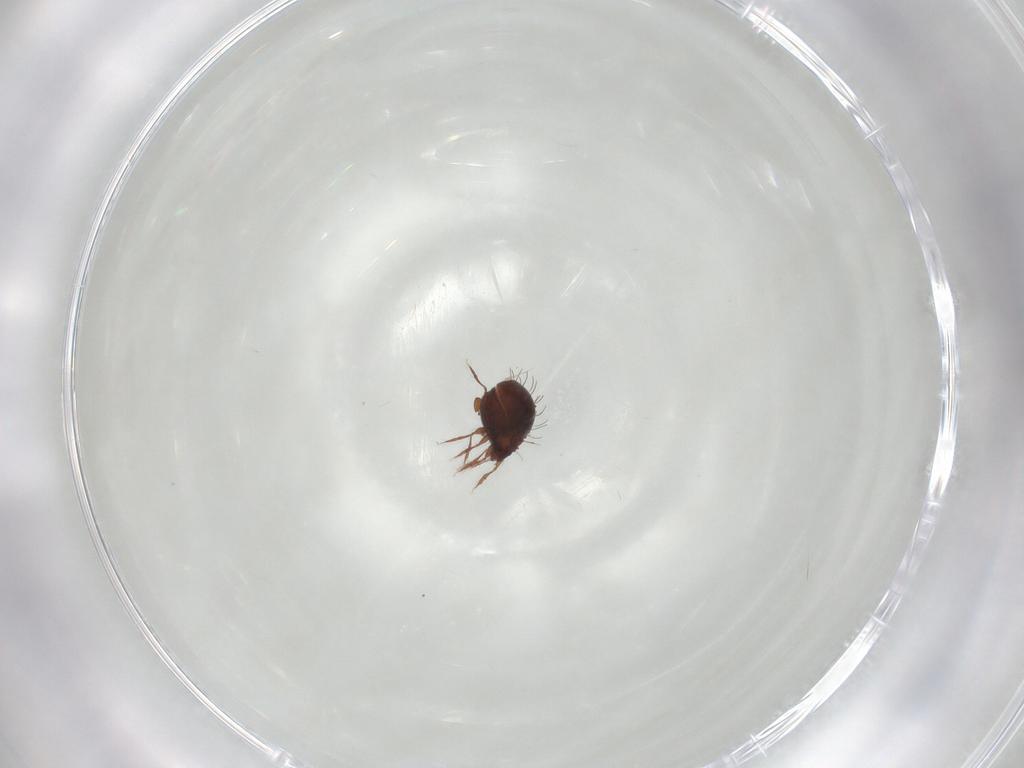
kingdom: Animalia
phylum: Arthropoda
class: Arachnida
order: Sarcoptiformes
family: Caloppiidae
